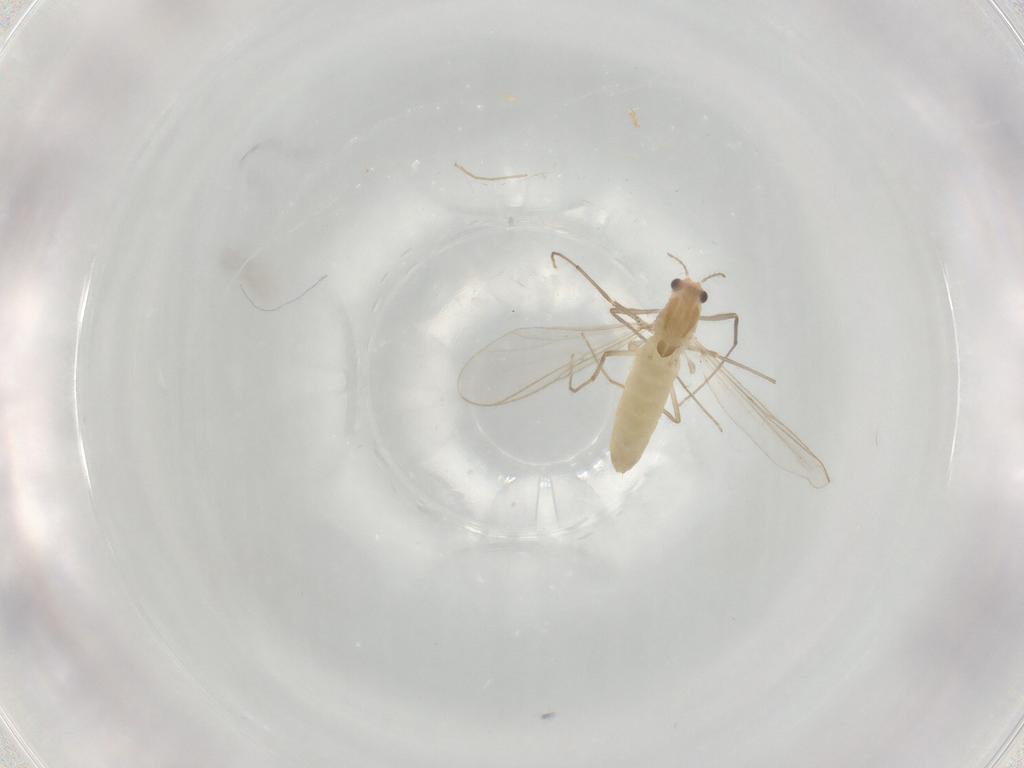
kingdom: Animalia
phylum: Arthropoda
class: Insecta
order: Diptera
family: Chironomidae
